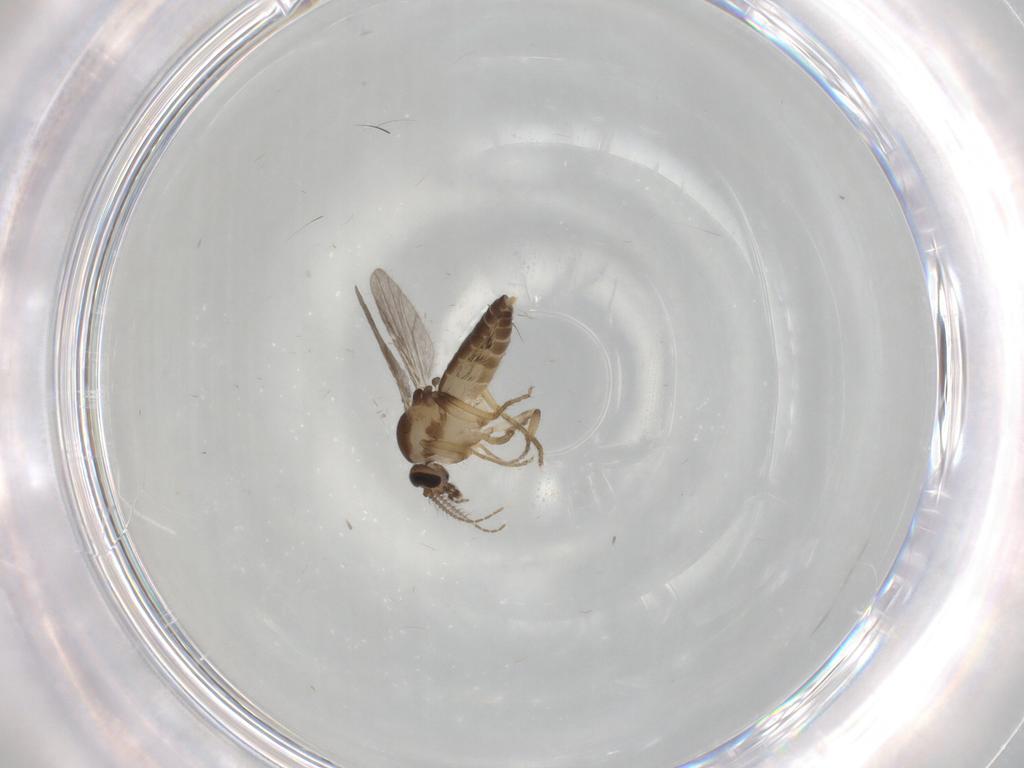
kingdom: Animalia
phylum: Arthropoda
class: Insecta
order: Diptera
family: Ceratopogonidae
